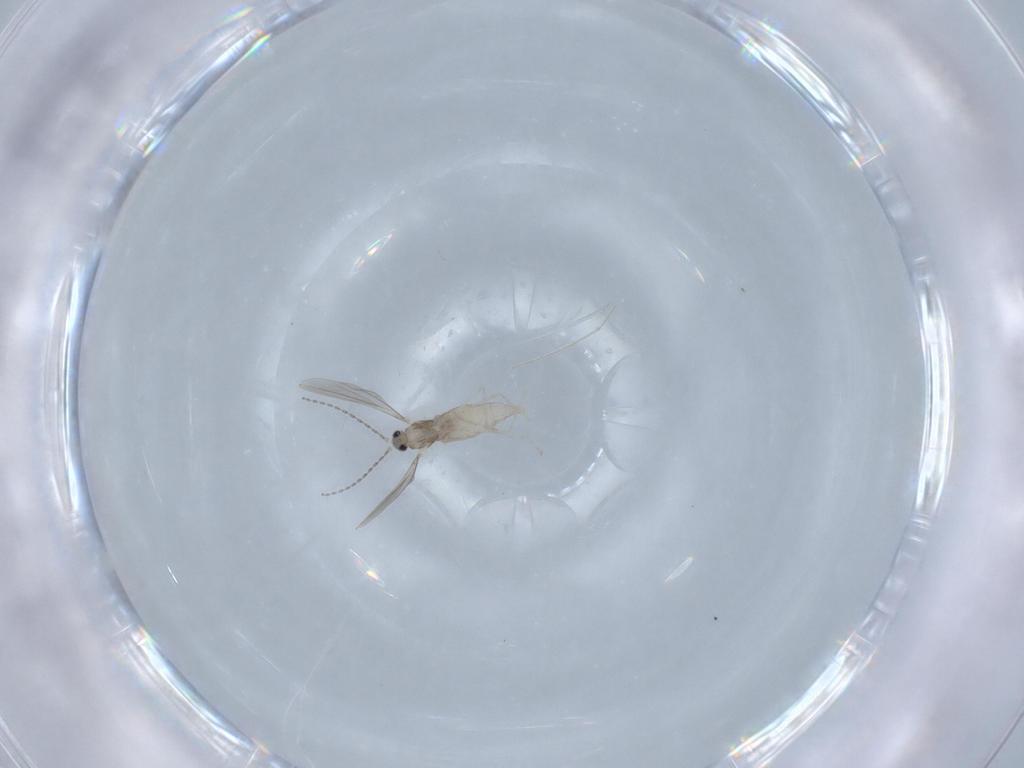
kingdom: Animalia
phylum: Arthropoda
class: Insecta
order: Diptera
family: Cecidomyiidae
